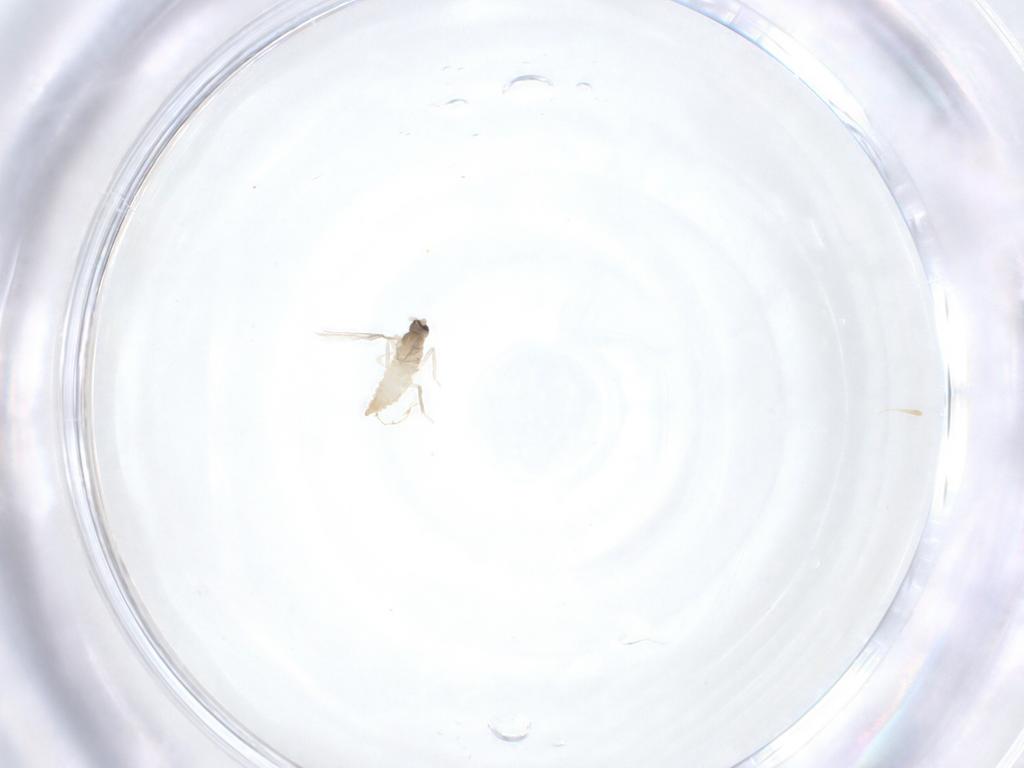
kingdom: Animalia
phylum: Arthropoda
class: Insecta
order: Diptera
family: Cecidomyiidae
